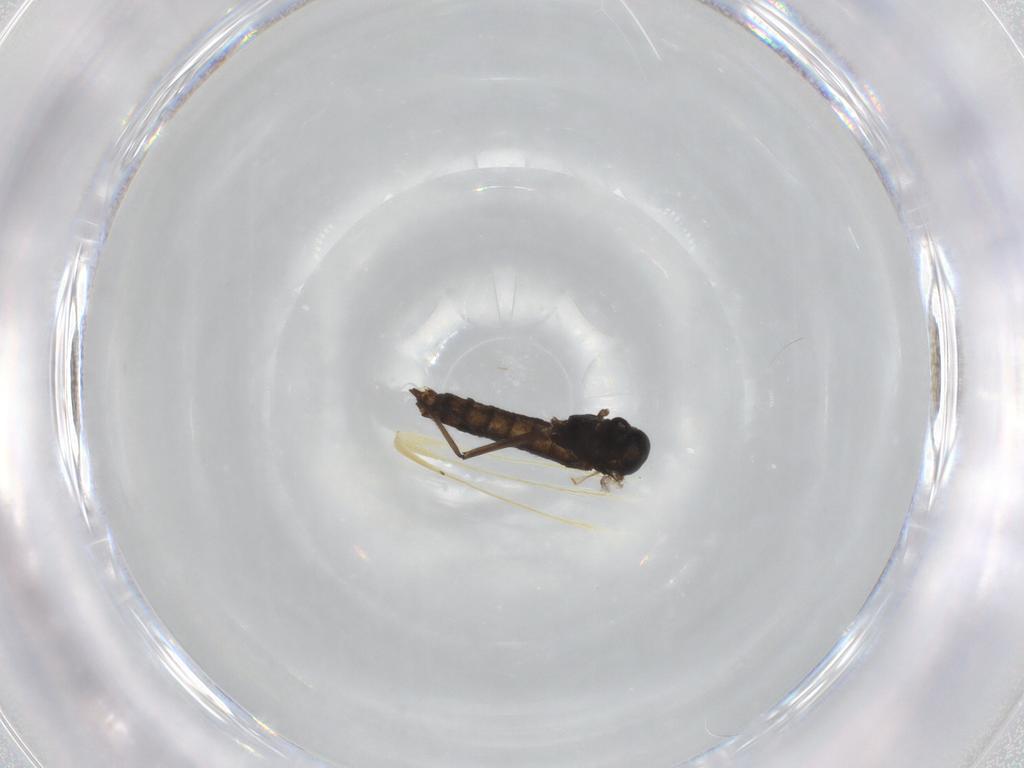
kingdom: Animalia
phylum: Arthropoda
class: Insecta
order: Diptera
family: Chironomidae
